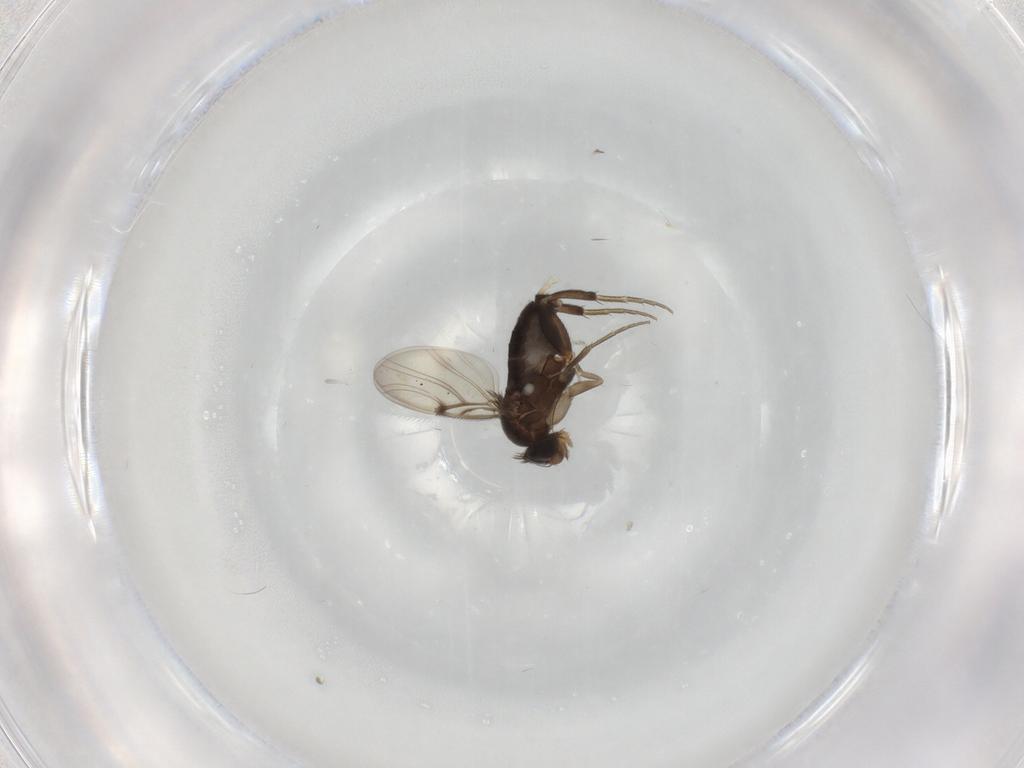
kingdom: Animalia
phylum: Arthropoda
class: Insecta
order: Diptera
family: Phoridae
